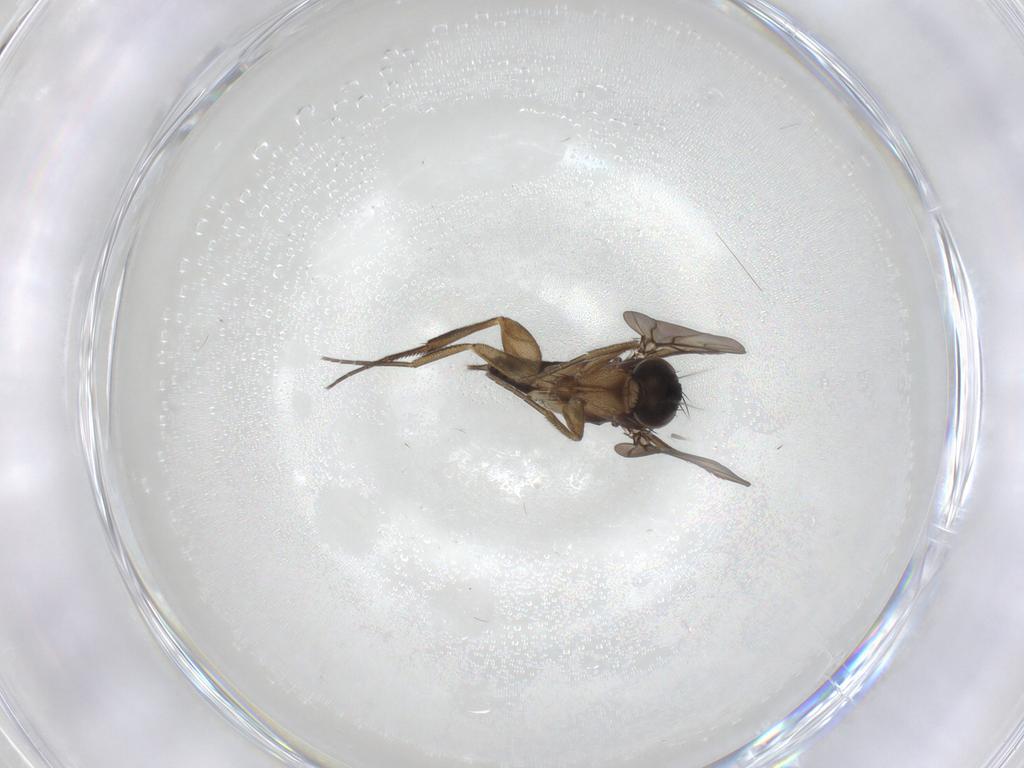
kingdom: Animalia
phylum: Arthropoda
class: Insecta
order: Diptera
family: Phoridae
